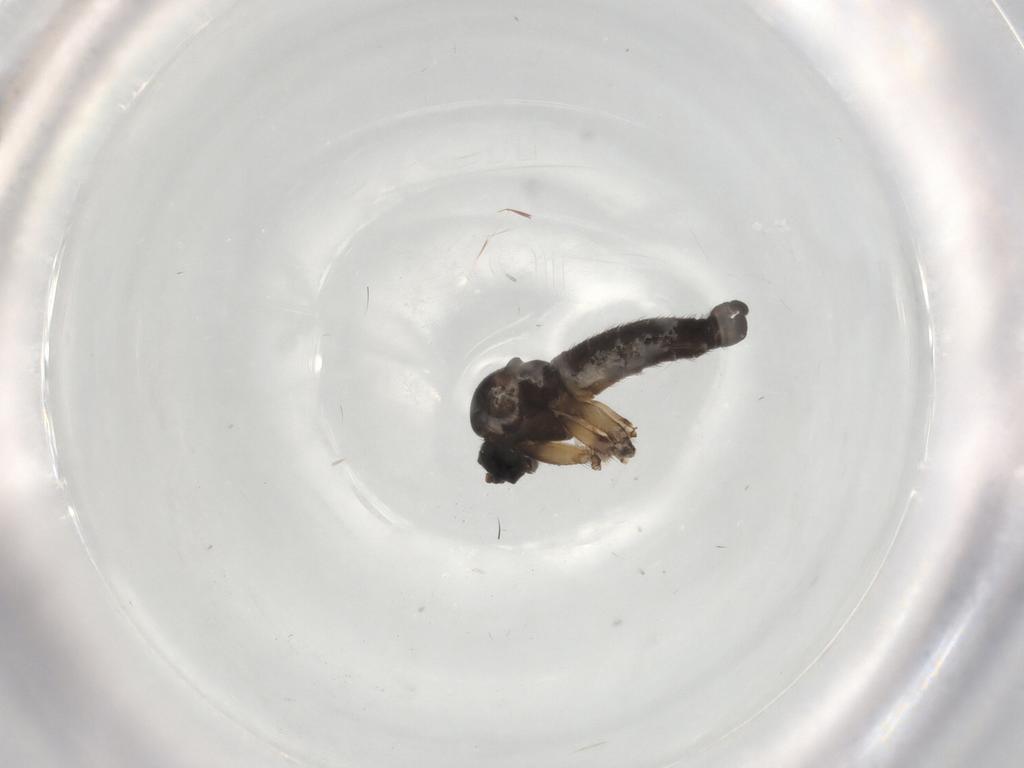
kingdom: Animalia
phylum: Arthropoda
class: Insecta
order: Diptera
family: Sciaridae
